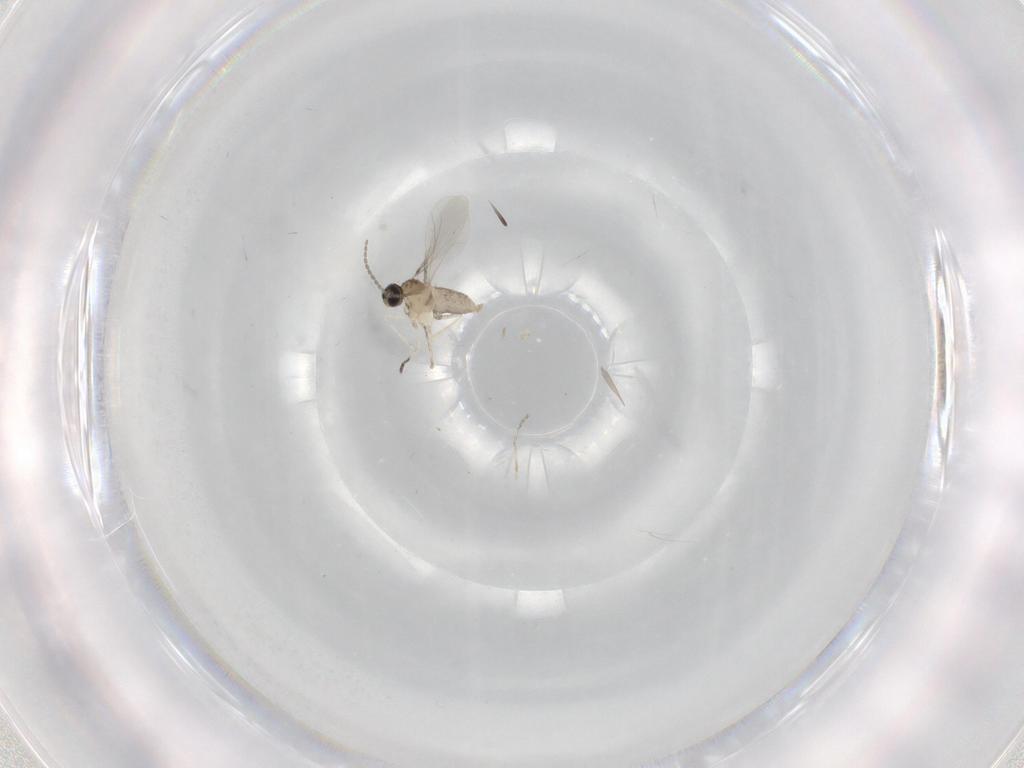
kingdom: Animalia
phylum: Arthropoda
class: Insecta
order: Diptera
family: Cecidomyiidae
